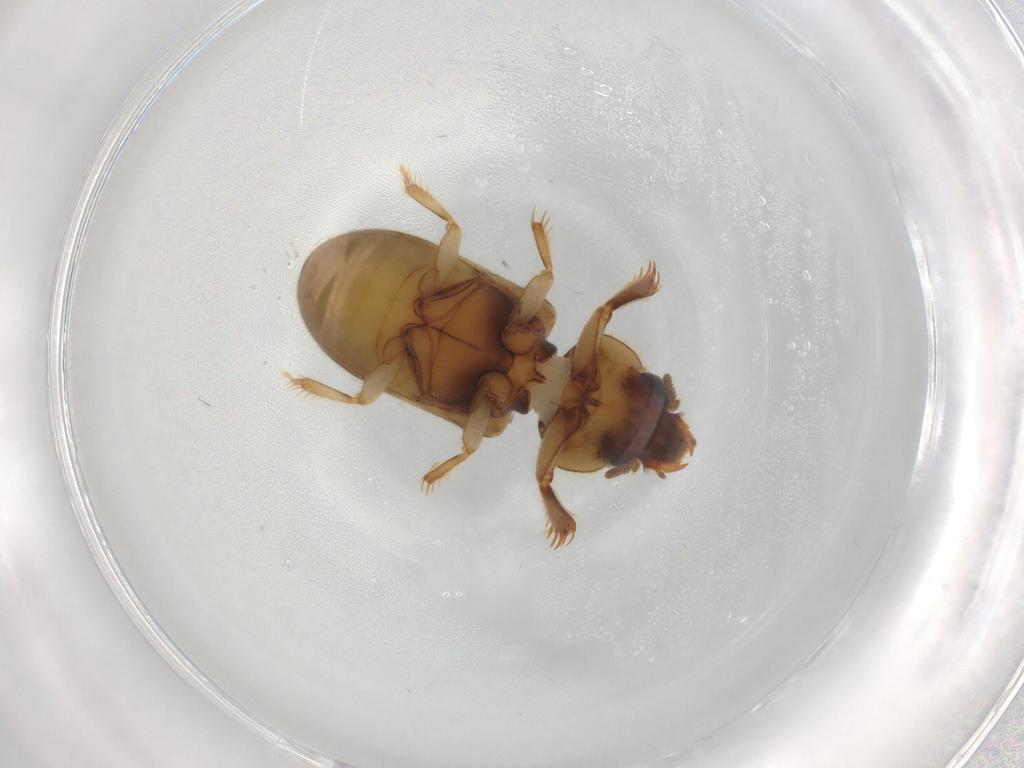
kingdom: Animalia
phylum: Arthropoda
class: Insecta
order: Coleoptera
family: Heteroceridae
